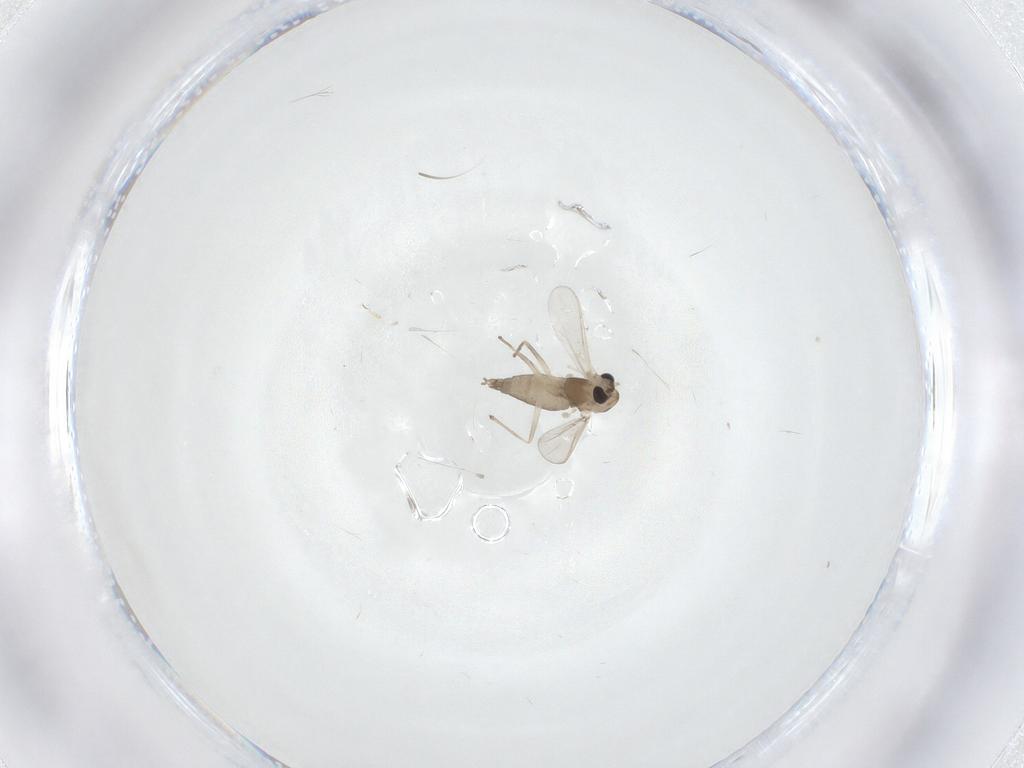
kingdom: Animalia
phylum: Arthropoda
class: Insecta
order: Diptera
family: Chironomidae
